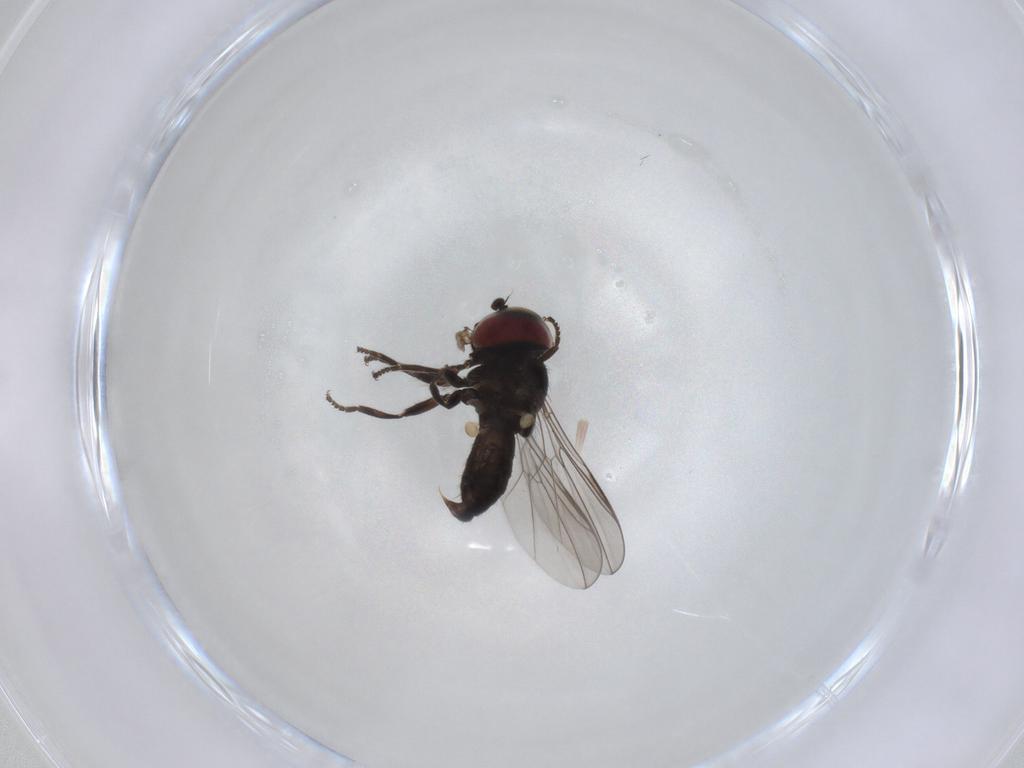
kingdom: Animalia
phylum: Arthropoda
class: Insecta
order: Diptera
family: Pipunculidae
